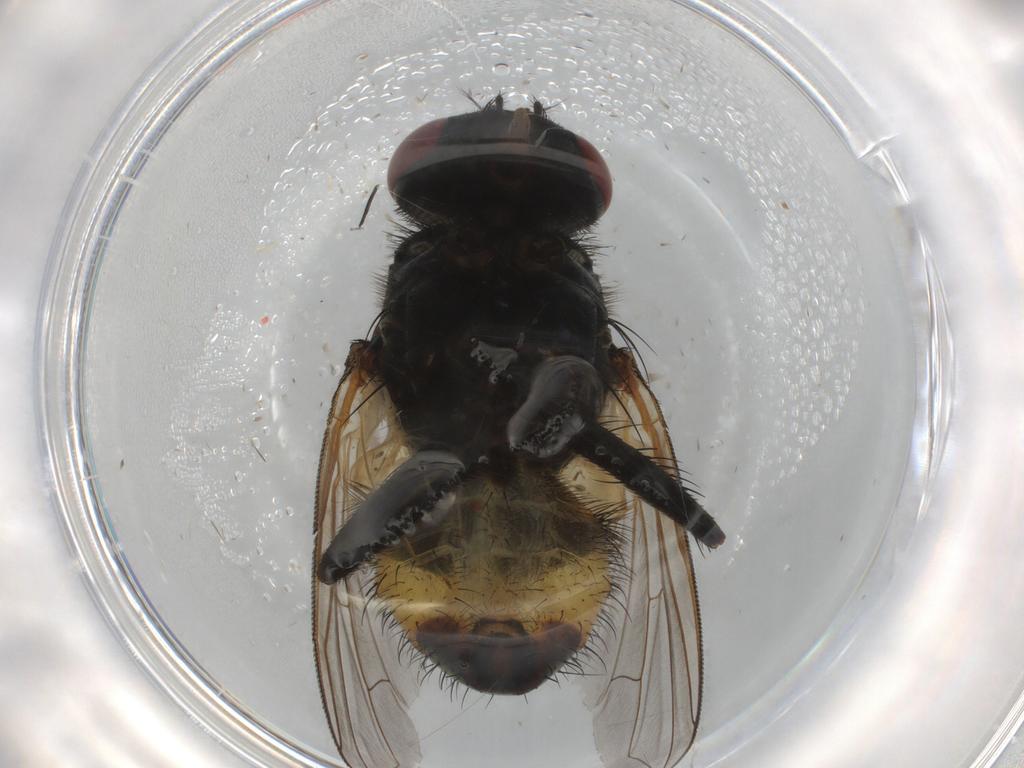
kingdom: Animalia
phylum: Arthropoda
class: Insecta
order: Diptera
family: Muscidae
